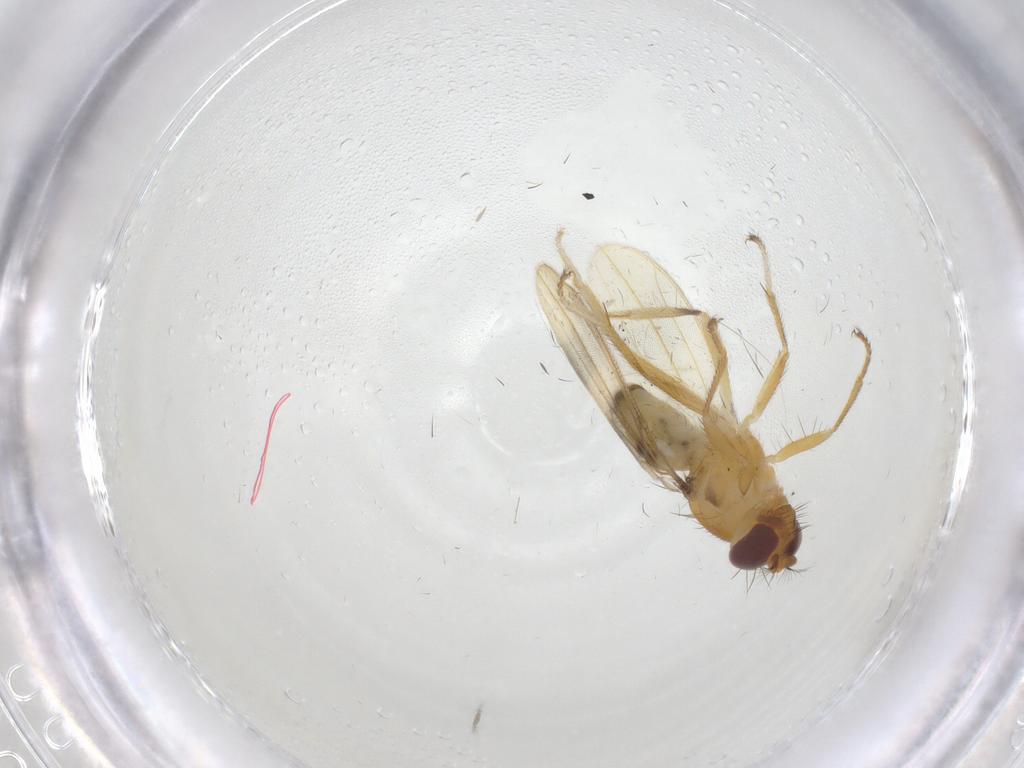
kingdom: Animalia
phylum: Arthropoda
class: Insecta
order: Diptera
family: Periscelididae
